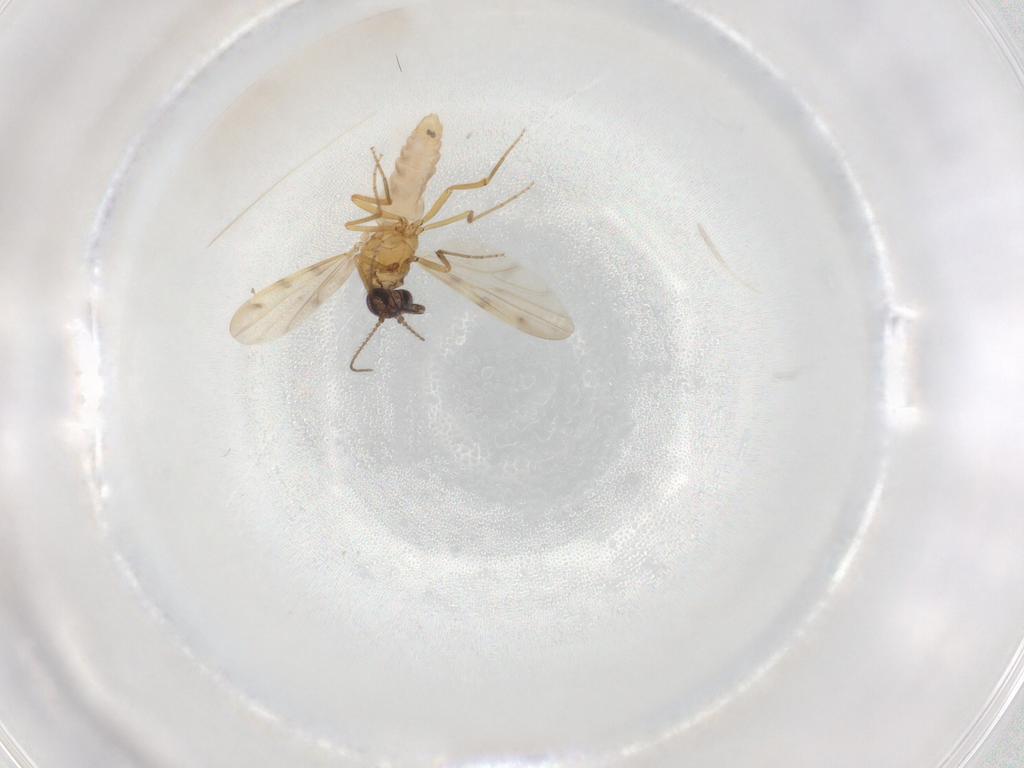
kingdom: Animalia
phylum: Arthropoda
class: Insecta
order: Diptera
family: Ceratopogonidae
